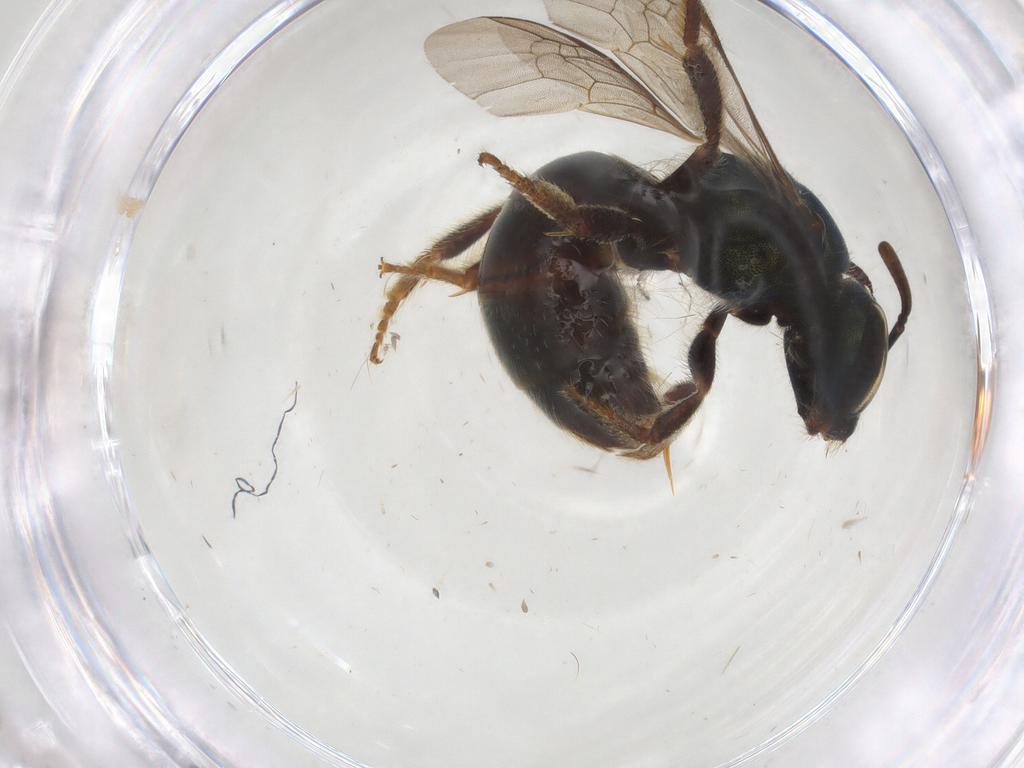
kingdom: Animalia
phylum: Arthropoda
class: Insecta
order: Hymenoptera
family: Halictidae
